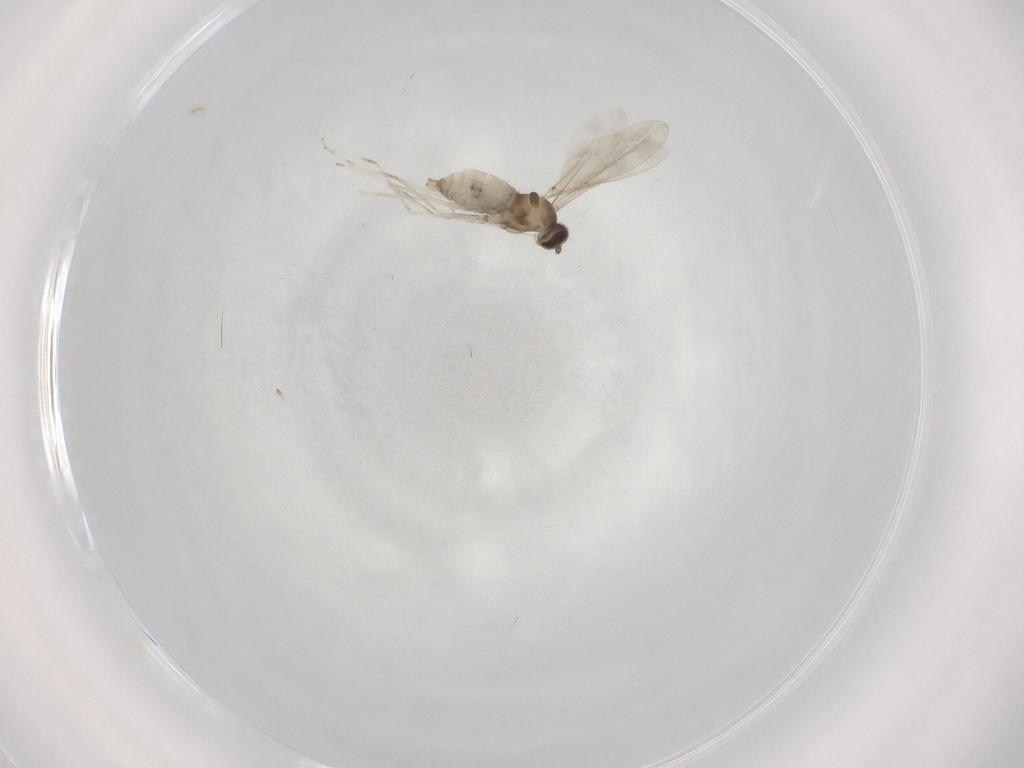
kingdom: Animalia
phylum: Arthropoda
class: Insecta
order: Diptera
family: Cecidomyiidae
